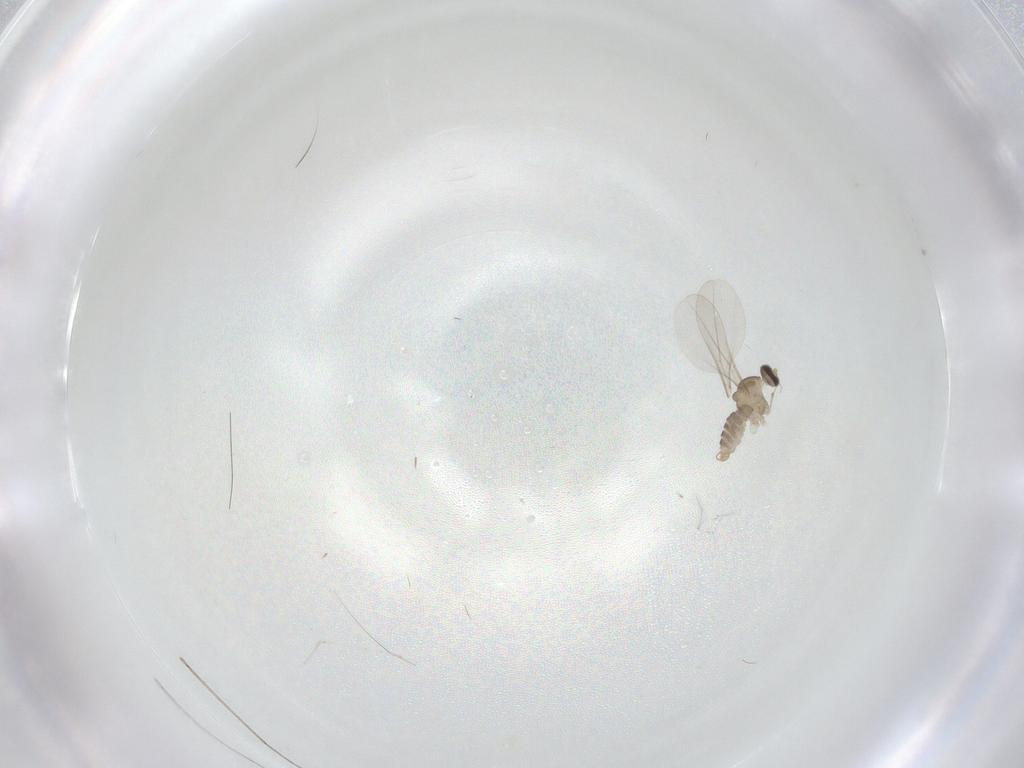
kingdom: Animalia
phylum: Arthropoda
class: Insecta
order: Diptera
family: Cecidomyiidae
